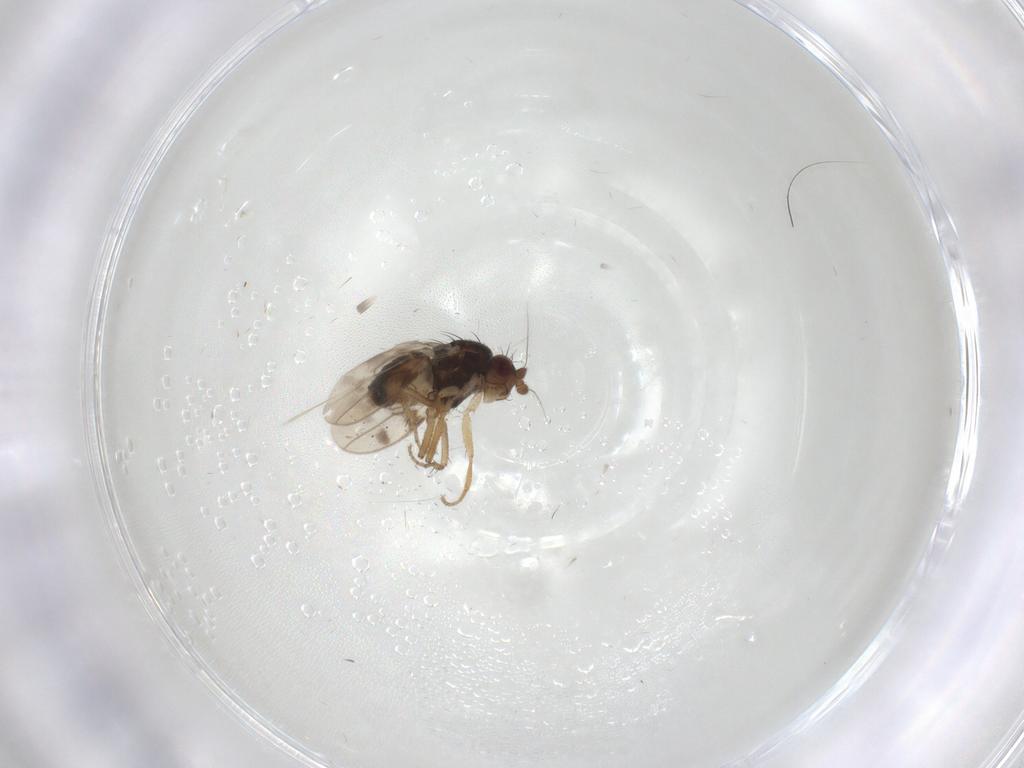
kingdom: Animalia
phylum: Arthropoda
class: Insecta
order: Diptera
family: Sphaeroceridae
